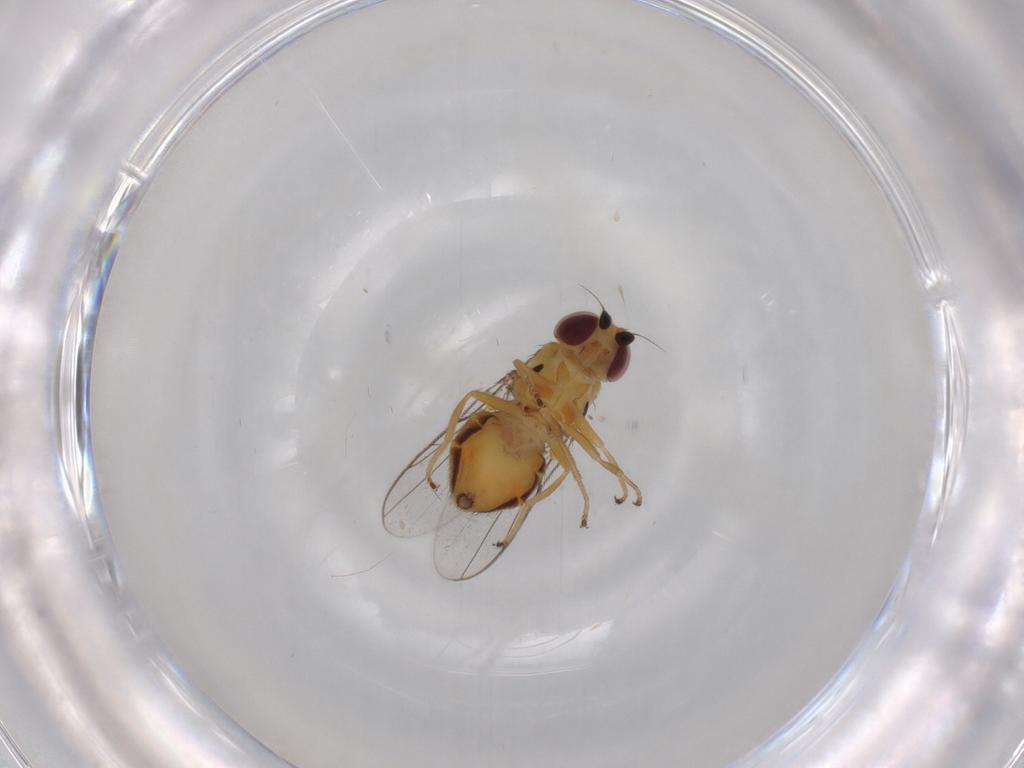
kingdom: Animalia
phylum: Arthropoda
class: Insecta
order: Diptera
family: Chloropidae
